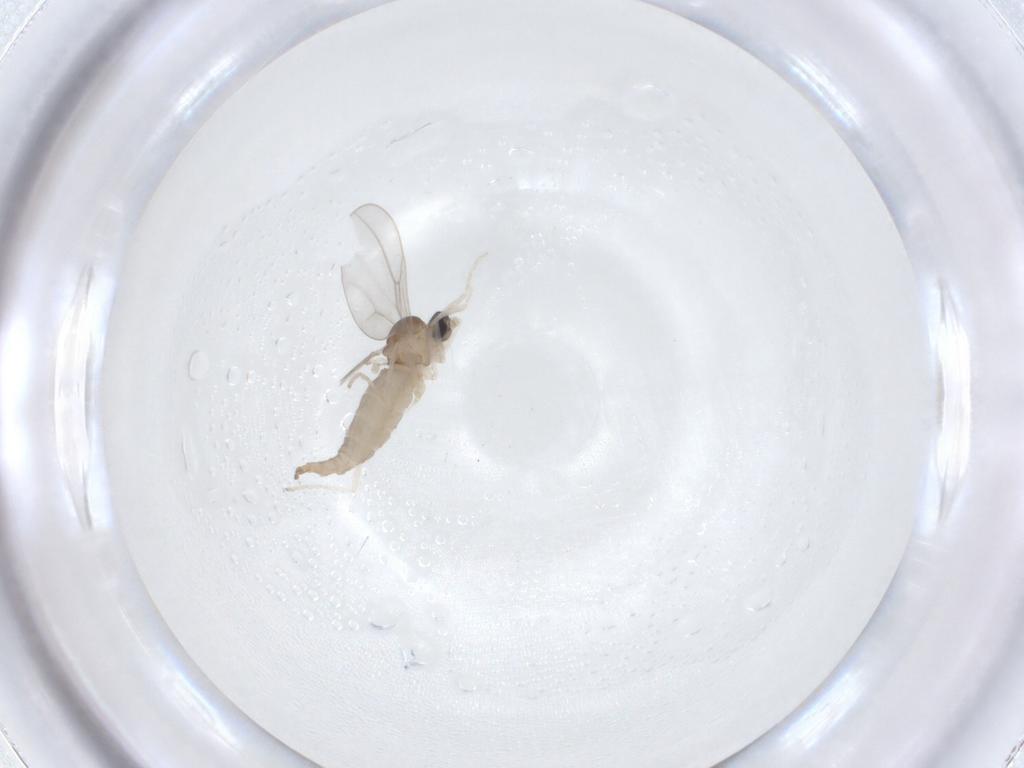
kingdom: Animalia
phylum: Arthropoda
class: Insecta
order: Diptera
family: Cecidomyiidae
